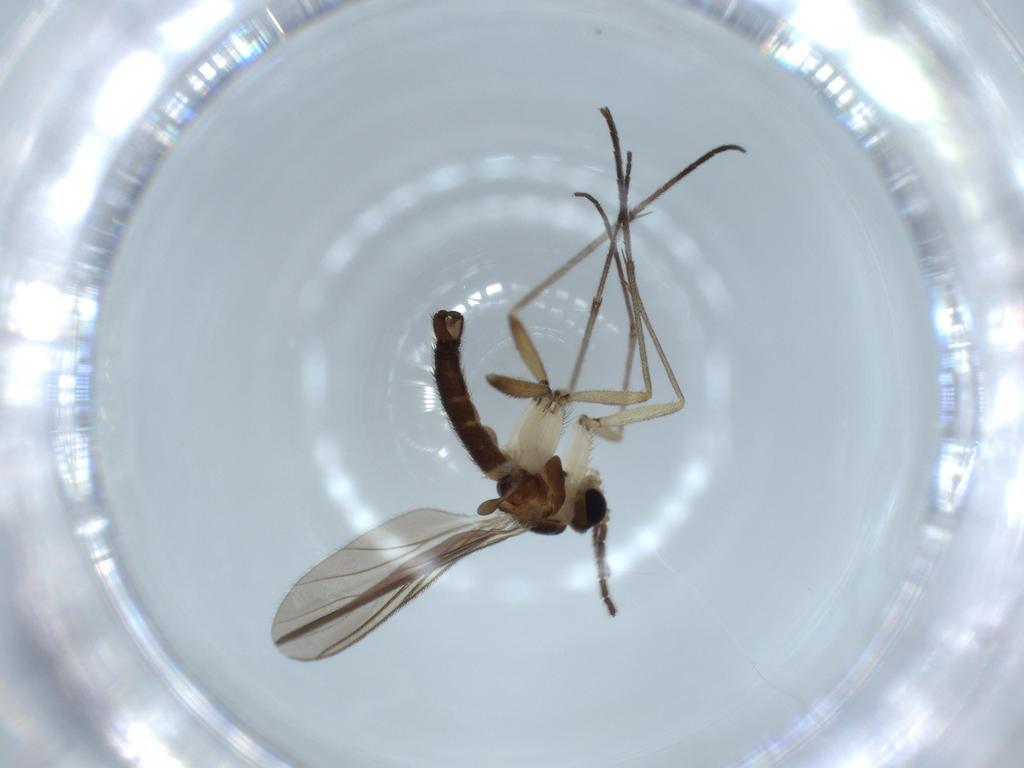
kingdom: Animalia
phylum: Arthropoda
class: Insecta
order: Diptera
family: Sciaridae
